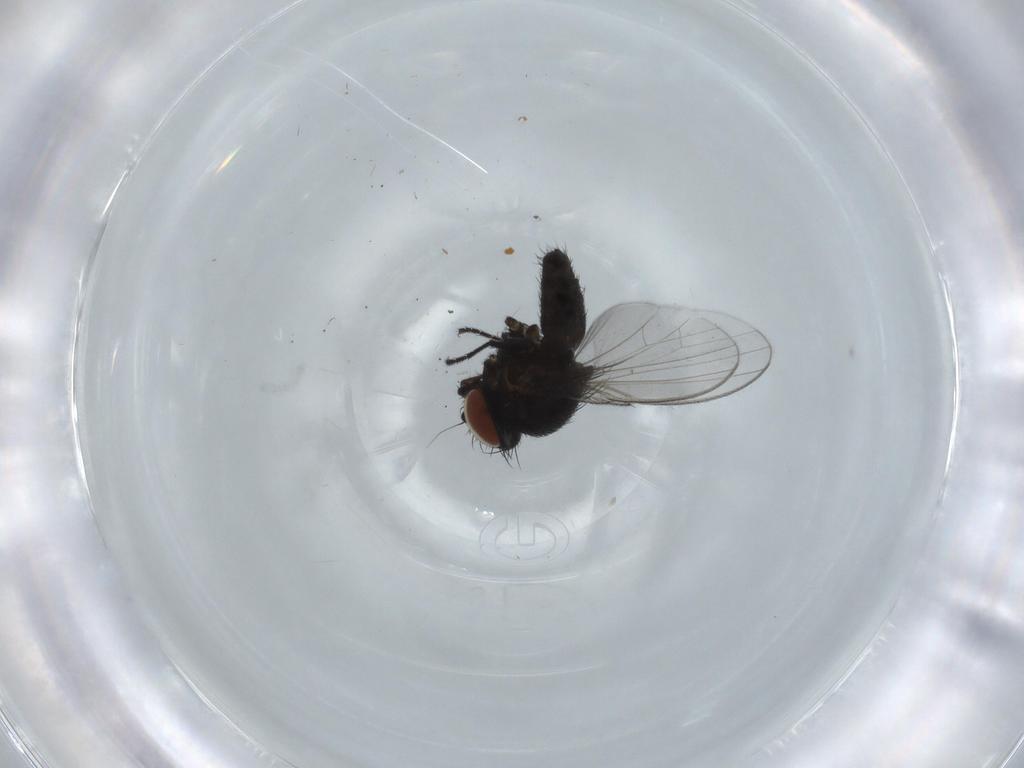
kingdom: Animalia
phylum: Arthropoda
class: Insecta
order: Diptera
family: Milichiidae
